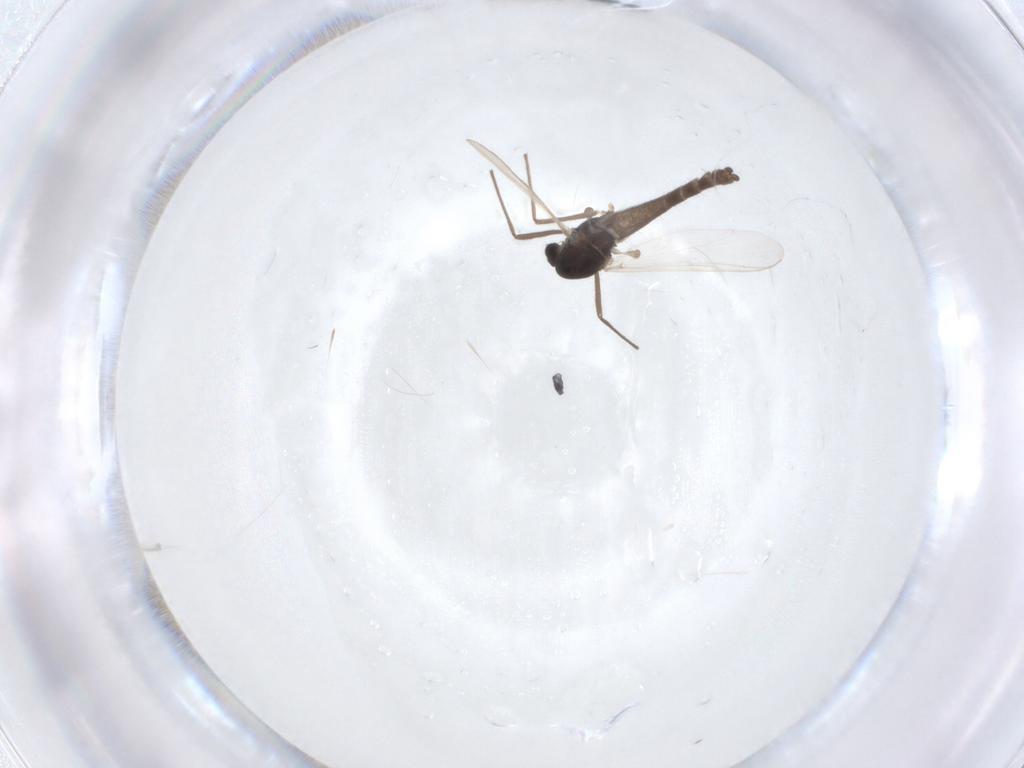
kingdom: Animalia
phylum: Arthropoda
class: Insecta
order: Diptera
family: Chironomidae
